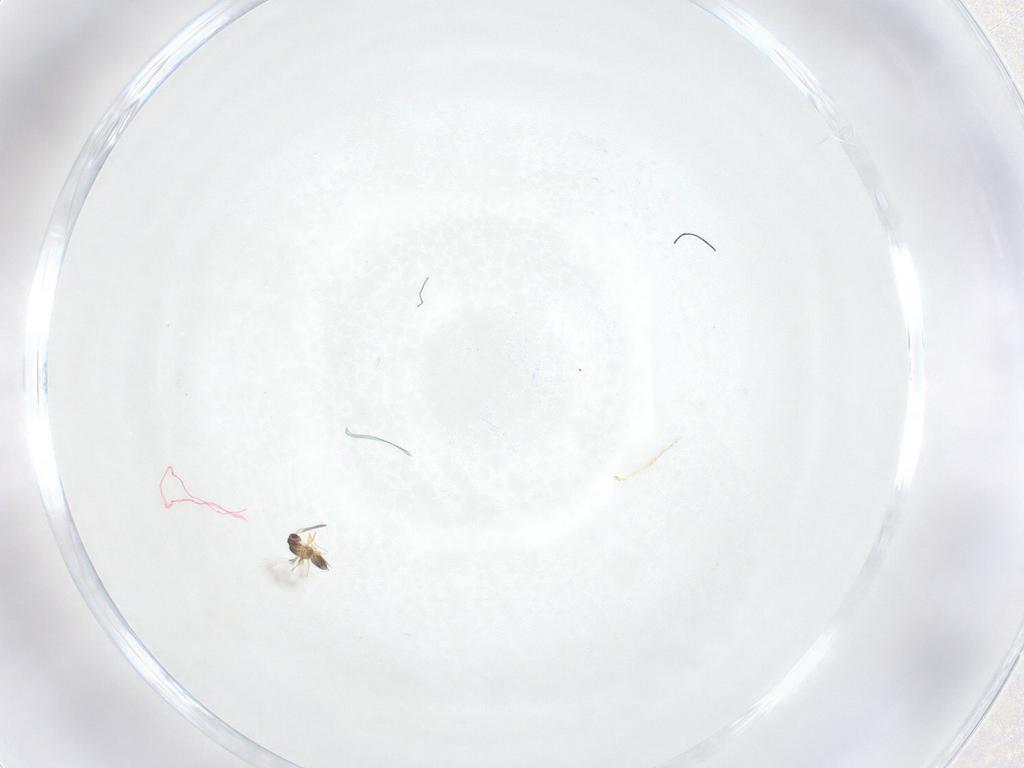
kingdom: Animalia
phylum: Arthropoda
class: Insecta
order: Hymenoptera
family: Mymaridae
